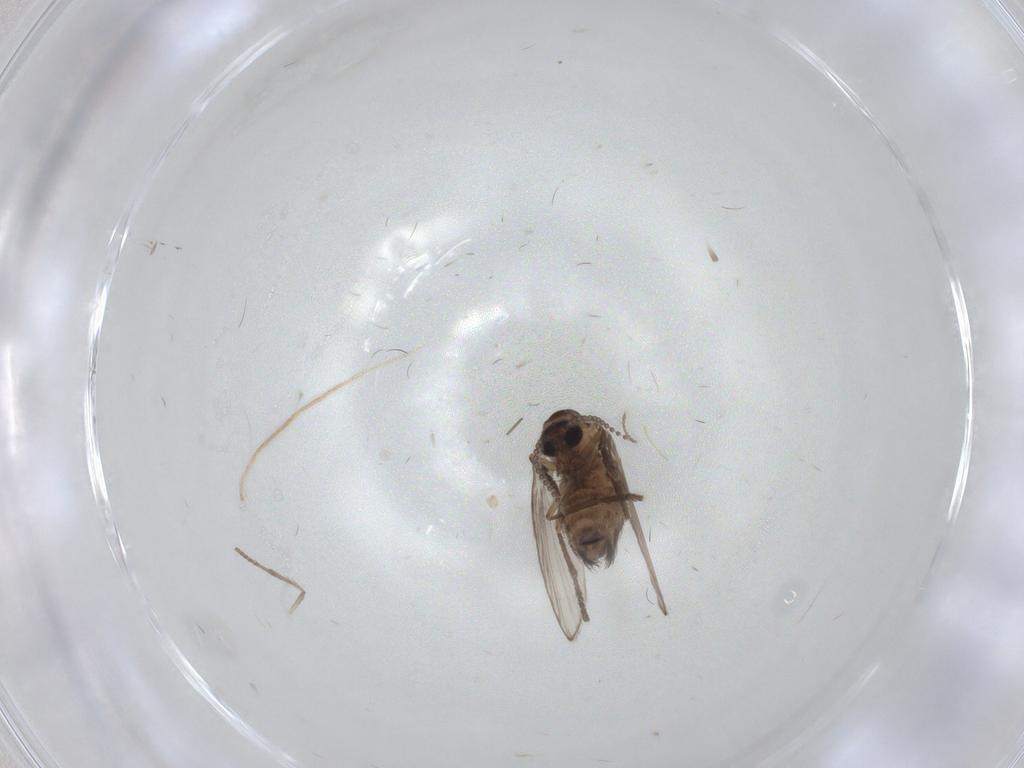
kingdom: Animalia
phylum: Arthropoda
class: Insecta
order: Diptera
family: Psychodidae
